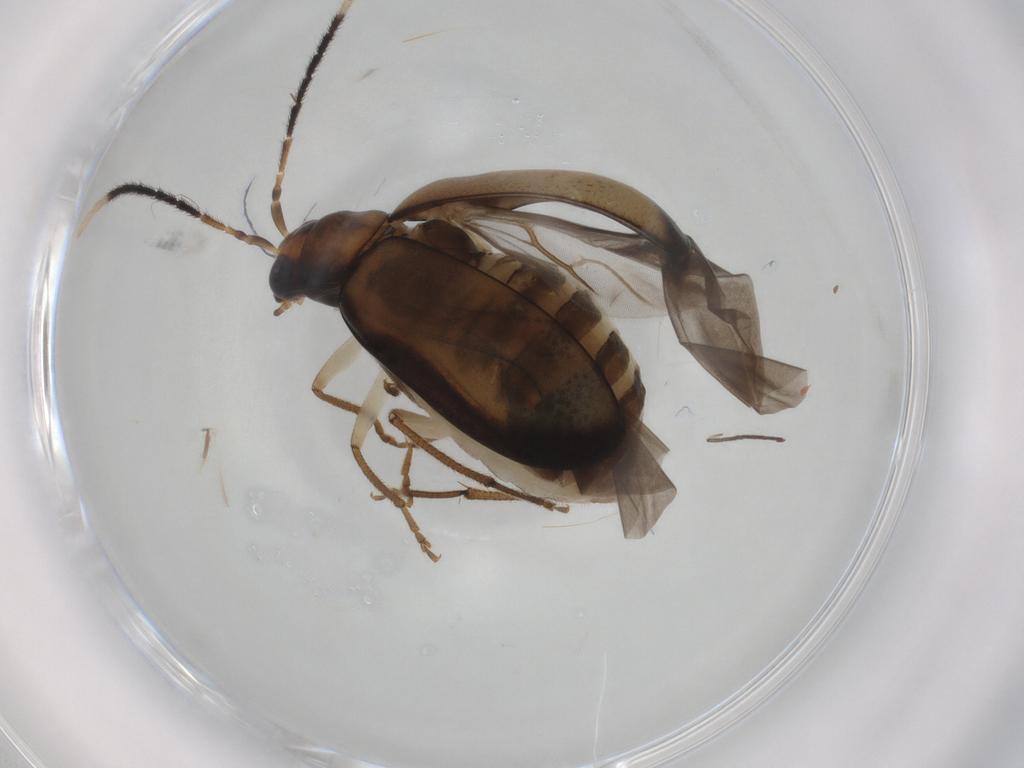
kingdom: Animalia
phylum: Arthropoda
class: Insecta
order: Coleoptera
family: Chrysomelidae
